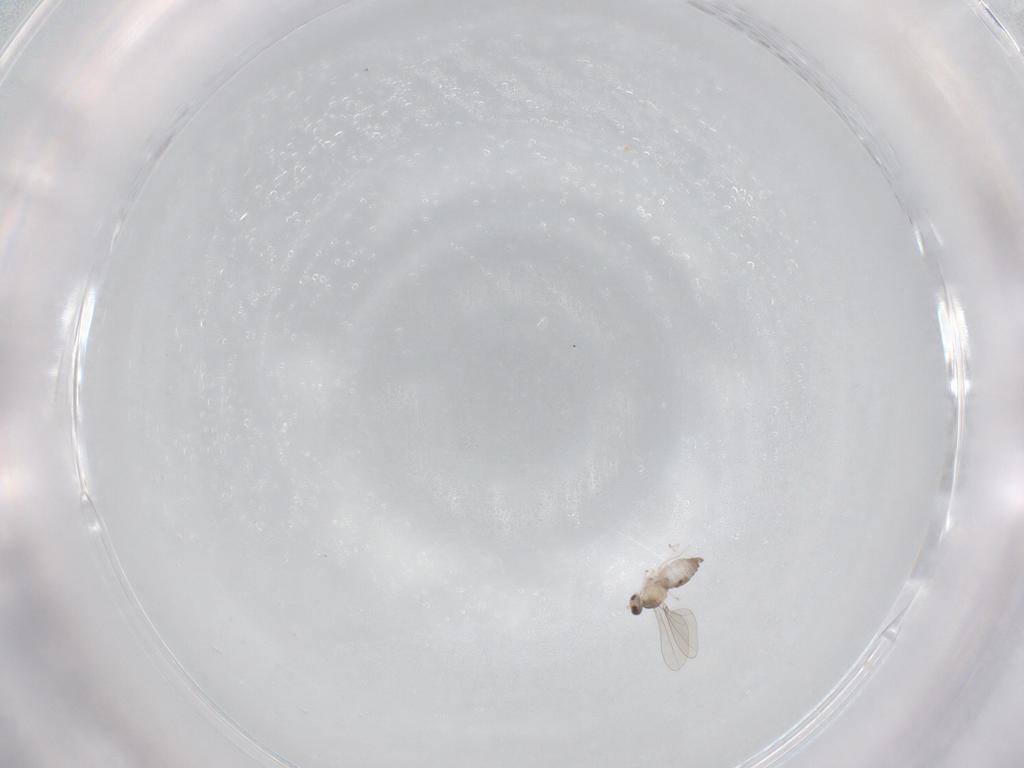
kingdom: Animalia
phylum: Arthropoda
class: Insecta
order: Diptera
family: Cecidomyiidae
